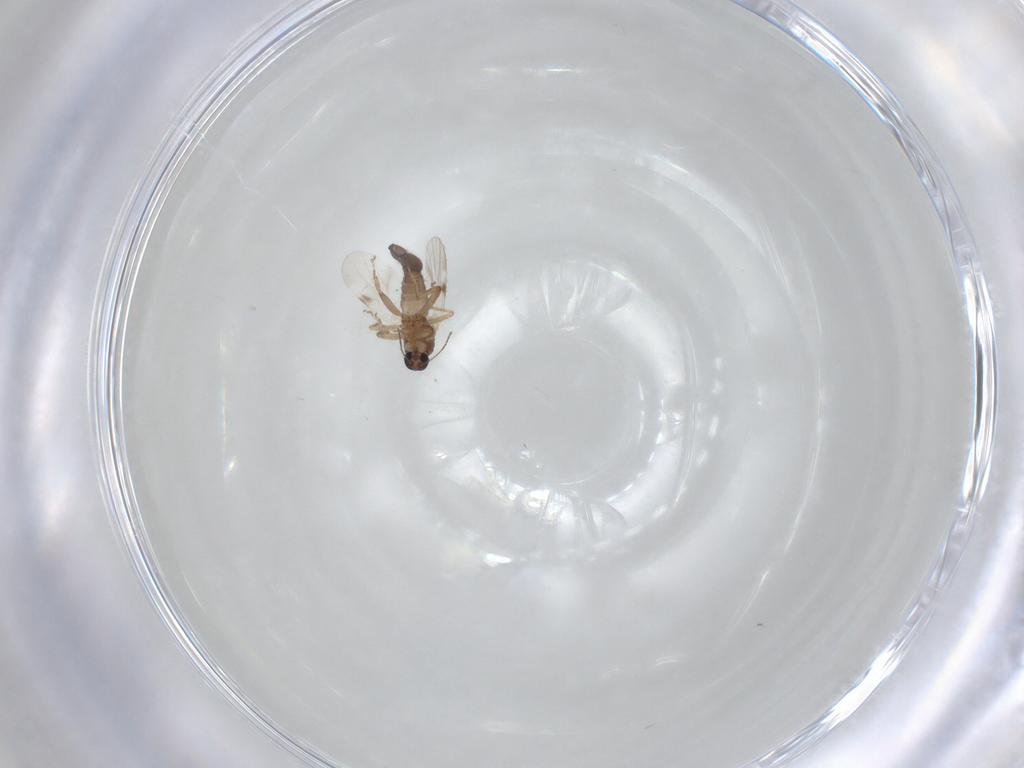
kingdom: Animalia
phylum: Arthropoda
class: Insecta
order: Diptera
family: Ceratopogonidae
